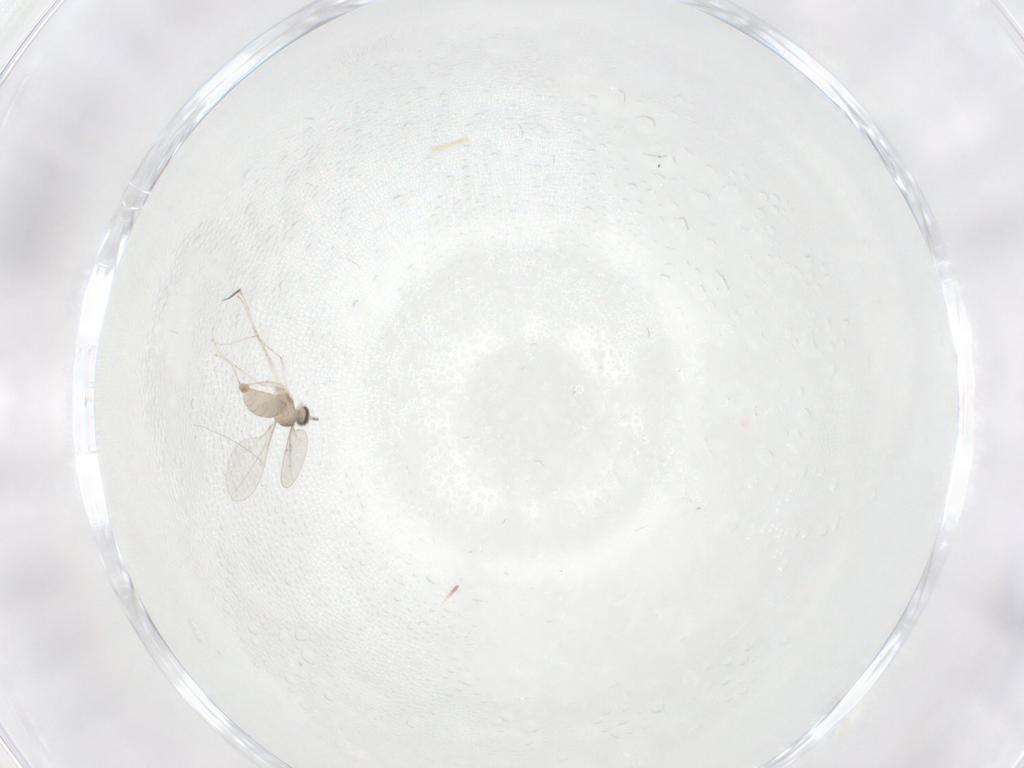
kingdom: Animalia
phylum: Arthropoda
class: Insecta
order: Diptera
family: Cecidomyiidae
